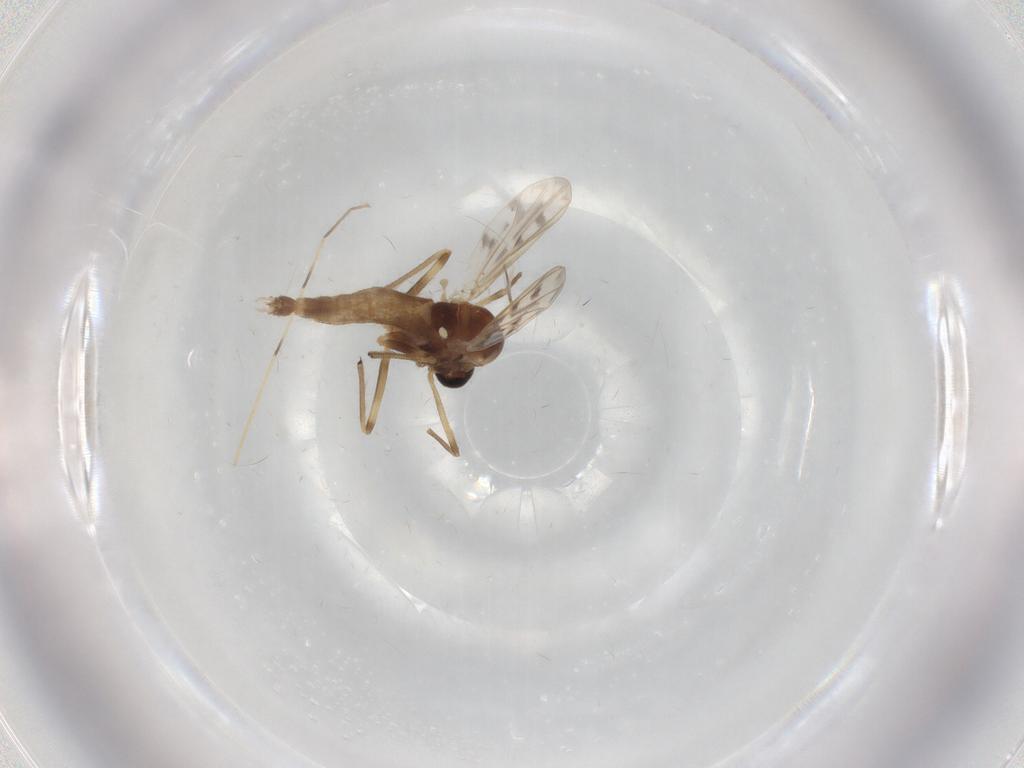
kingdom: Animalia
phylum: Arthropoda
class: Insecta
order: Diptera
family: Chironomidae
